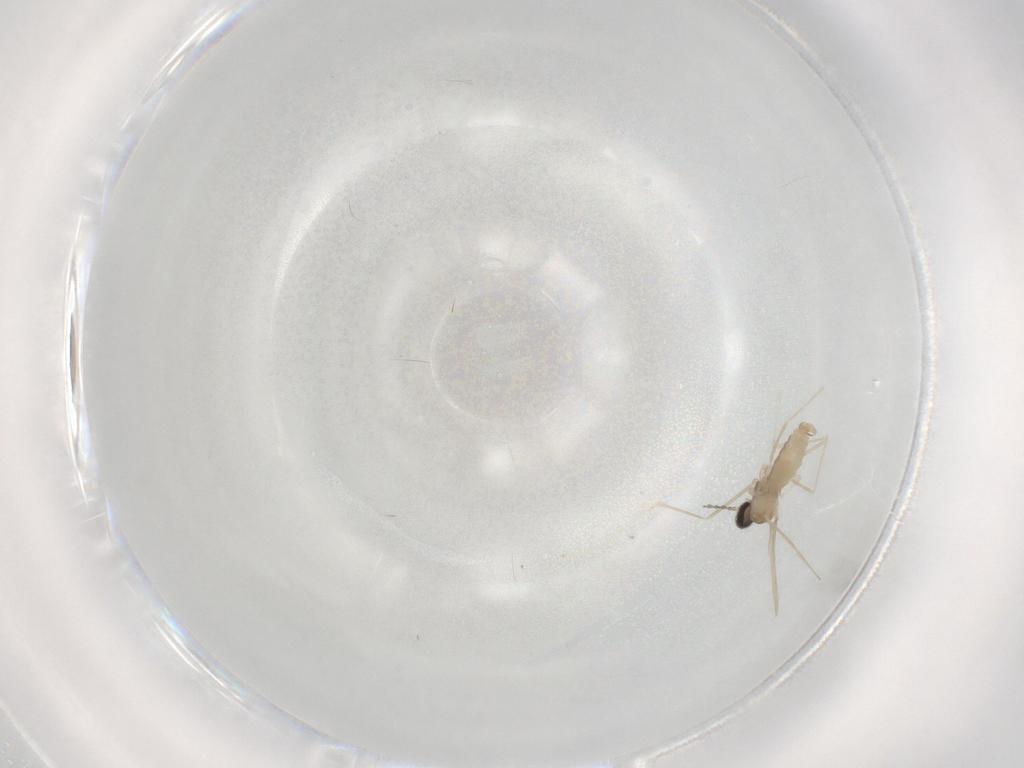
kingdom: Animalia
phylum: Arthropoda
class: Insecta
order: Diptera
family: Cecidomyiidae
